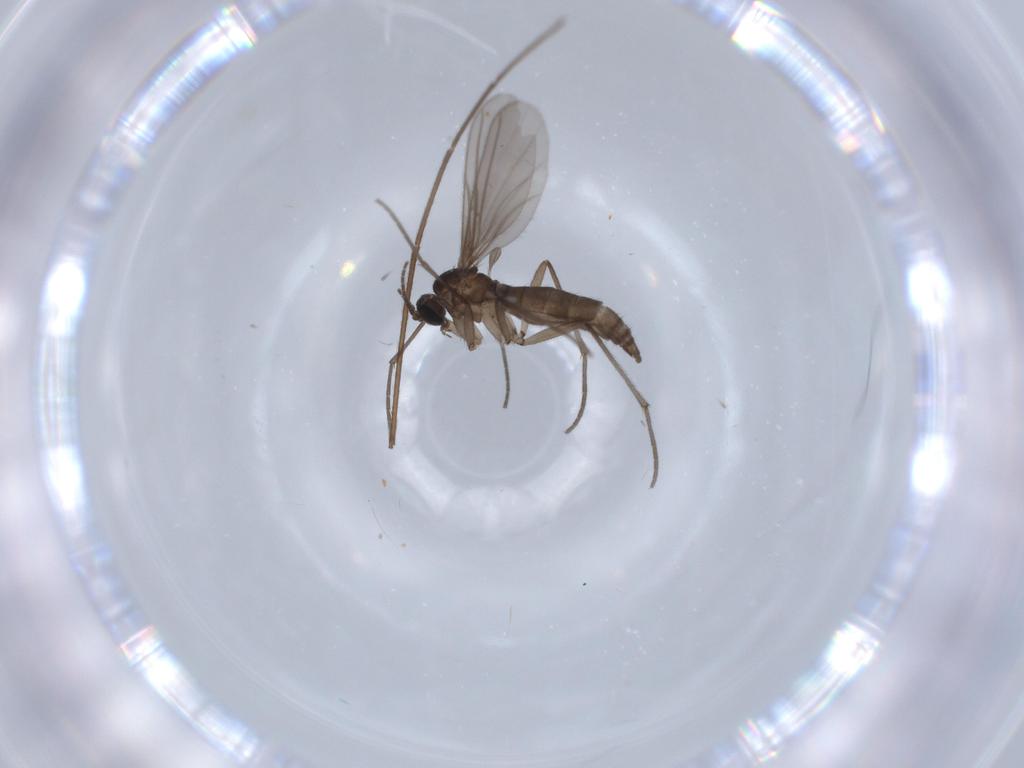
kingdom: Animalia
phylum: Arthropoda
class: Insecta
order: Diptera
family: Sciaridae
